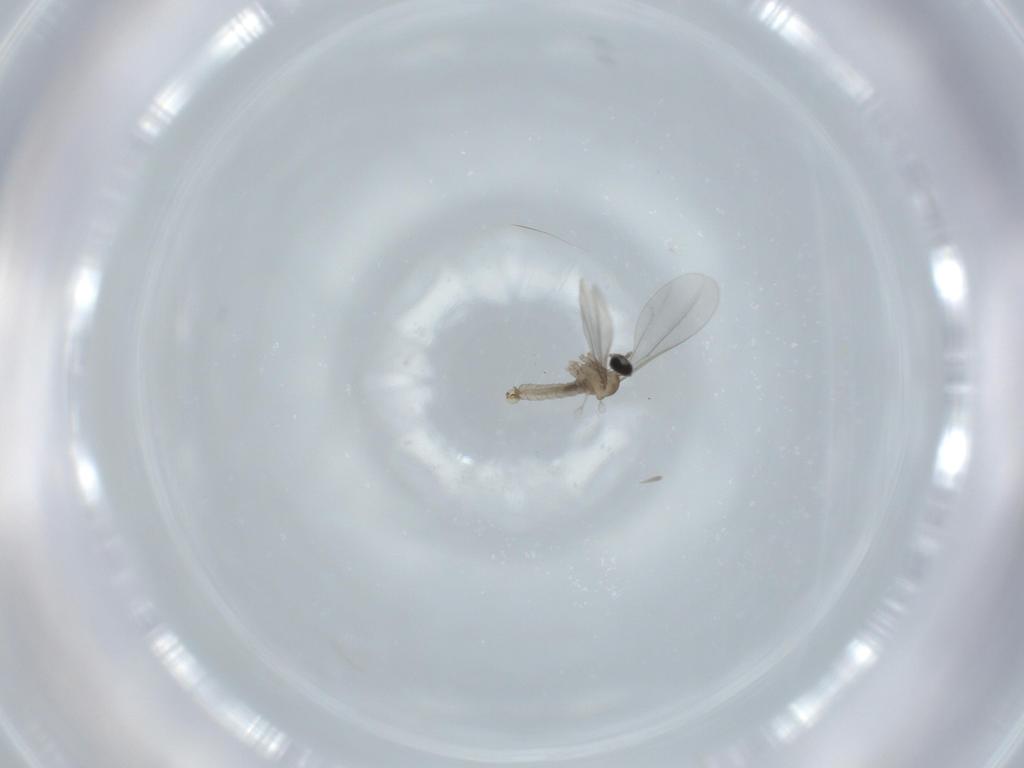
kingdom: Animalia
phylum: Arthropoda
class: Insecta
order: Diptera
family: Cecidomyiidae
